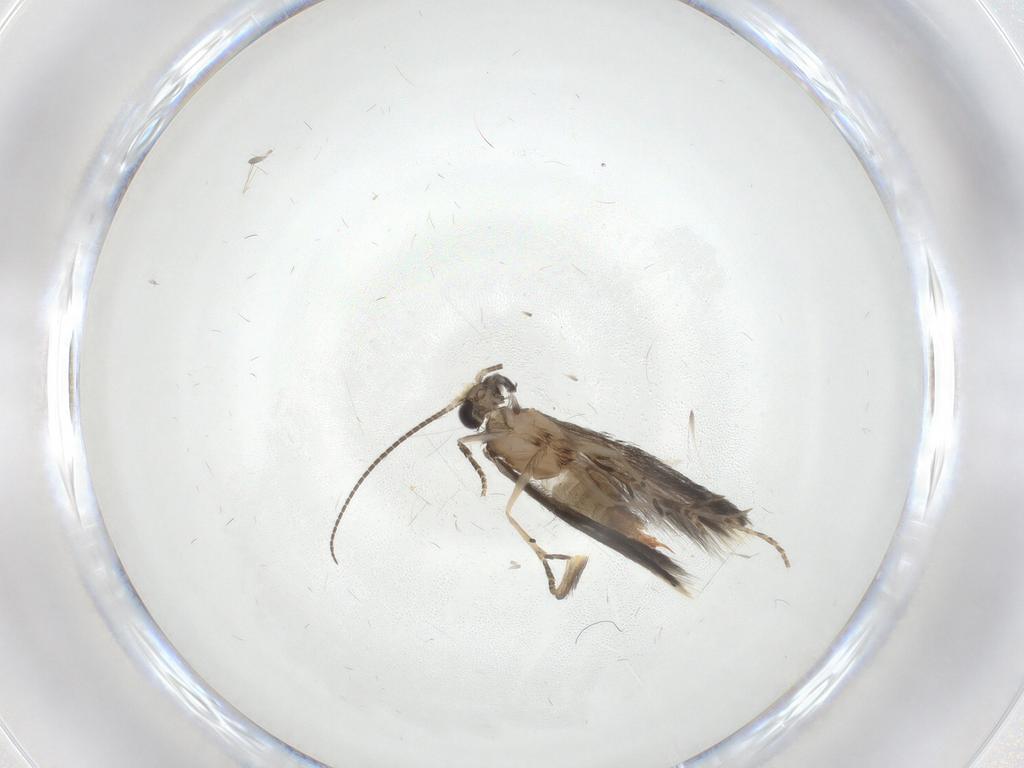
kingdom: Animalia
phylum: Arthropoda
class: Insecta
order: Trichoptera
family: Hydroptilidae
